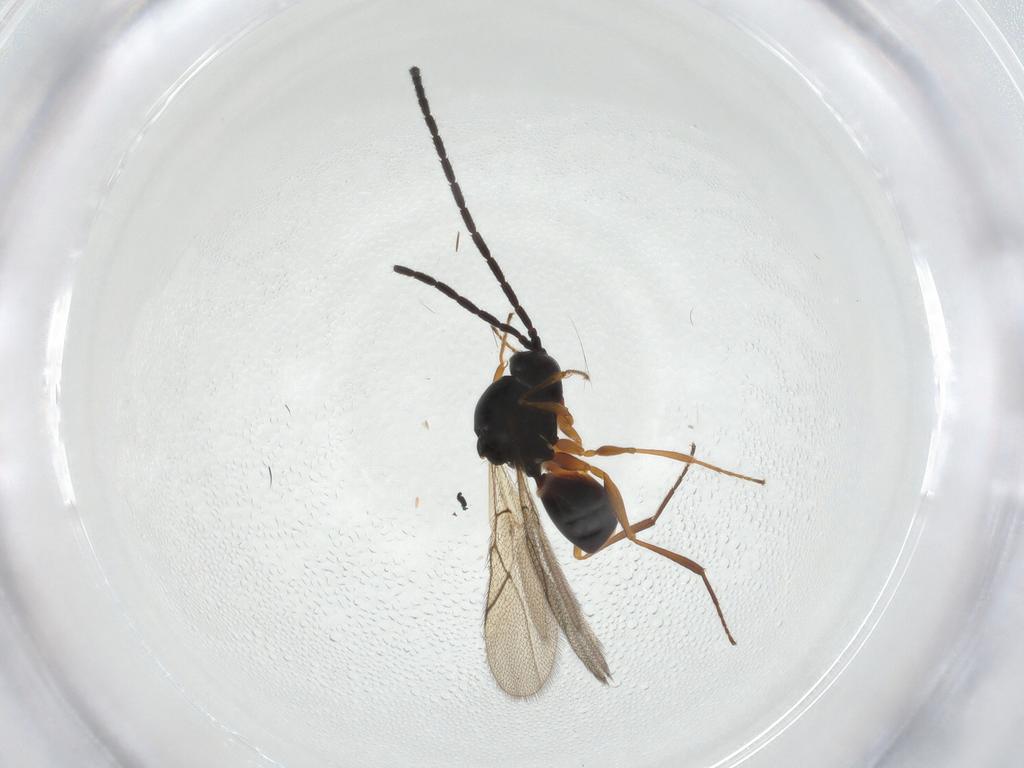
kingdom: Animalia
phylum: Arthropoda
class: Insecta
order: Hymenoptera
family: Figitidae
